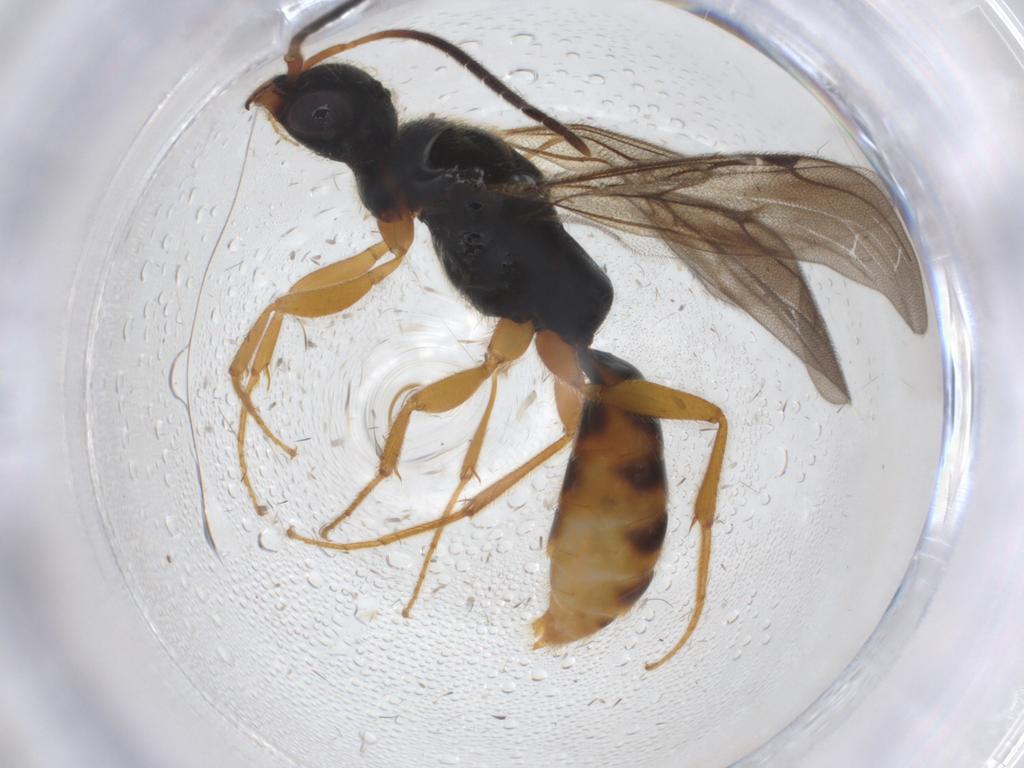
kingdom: Animalia
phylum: Arthropoda
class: Insecta
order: Hymenoptera
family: Bethylidae
